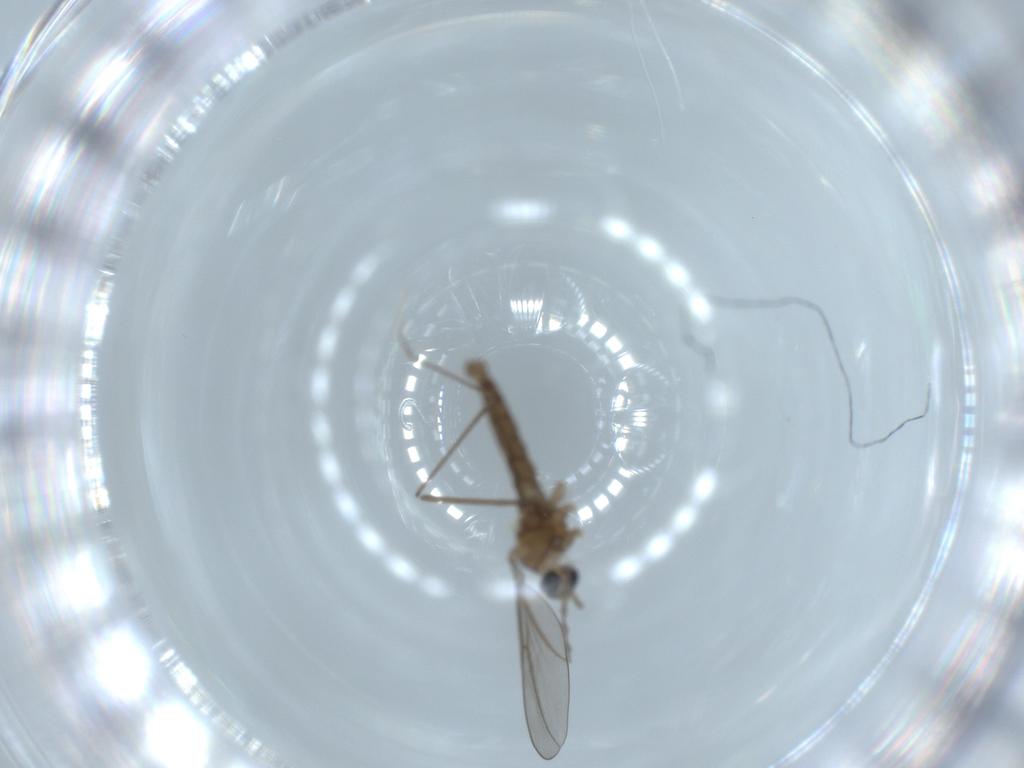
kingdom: Animalia
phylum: Arthropoda
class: Insecta
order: Diptera
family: Cecidomyiidae
